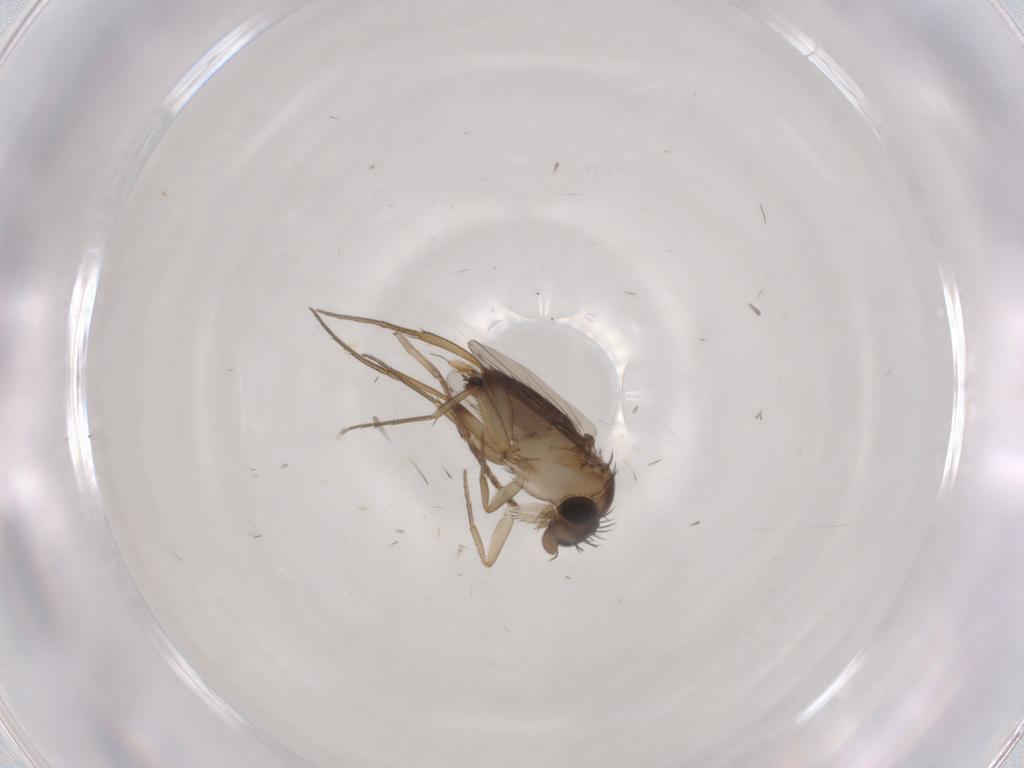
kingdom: Animalia
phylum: Arthropoda
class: Insecta
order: Diptera
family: Phoridae
